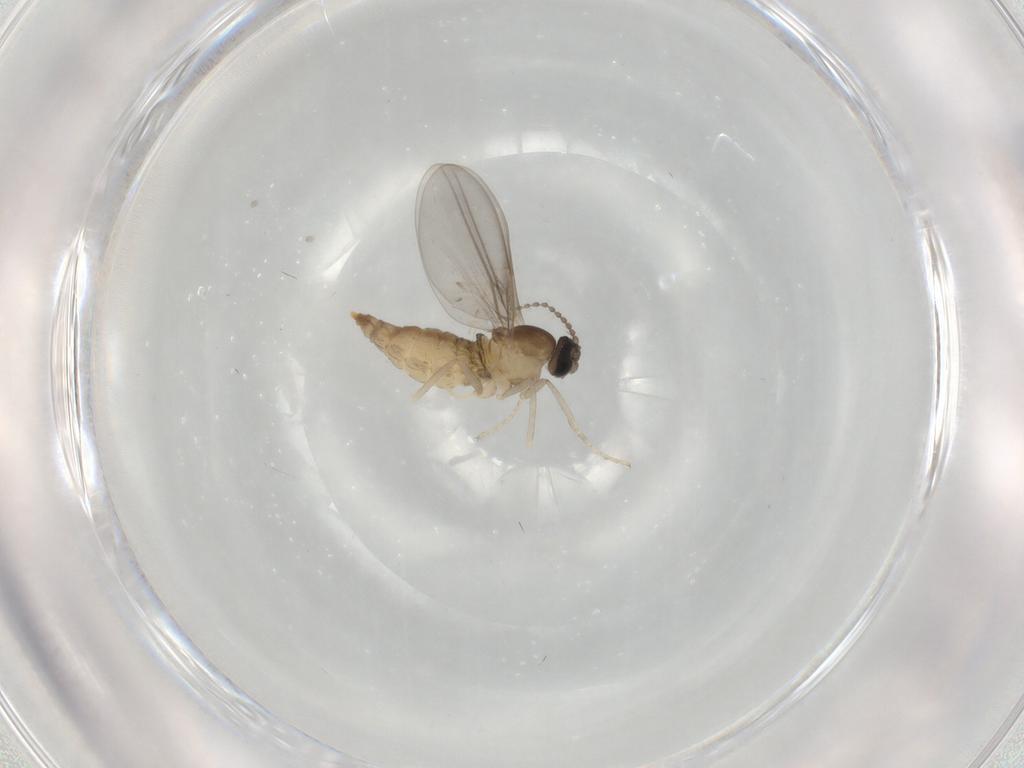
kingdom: Animalia
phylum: Arthropoda
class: Insecta
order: Diptera
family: Cecidomyiidae
